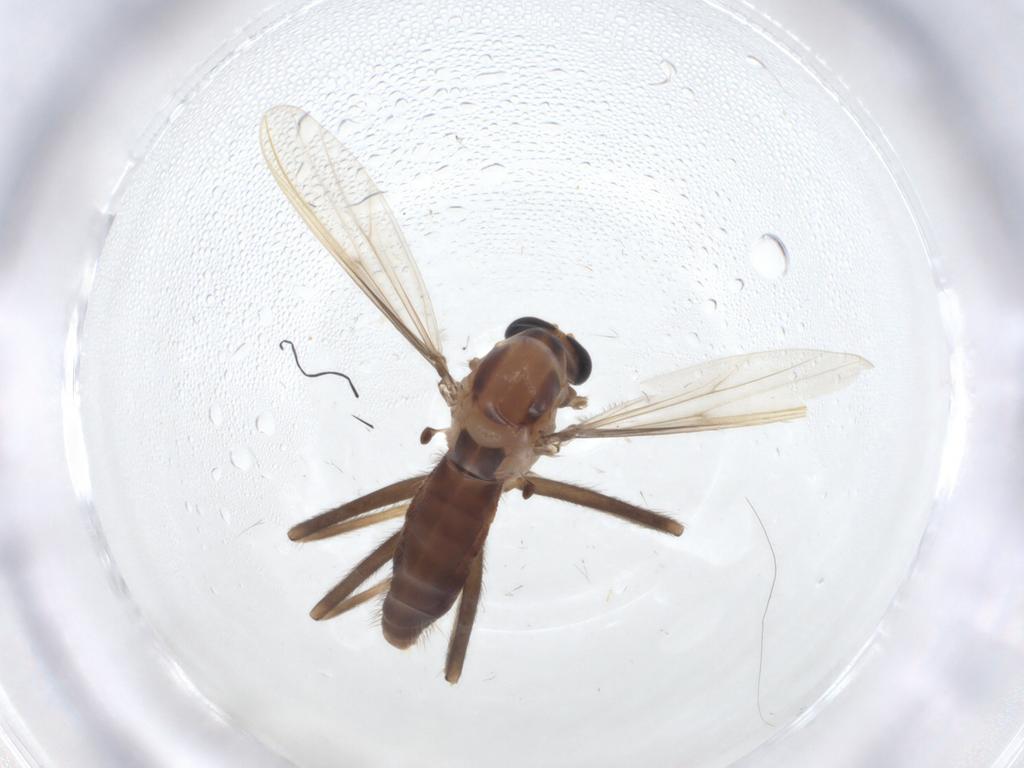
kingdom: Animalia
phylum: Arthropoda
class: Insecta
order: Diptera
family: Chironomidae
